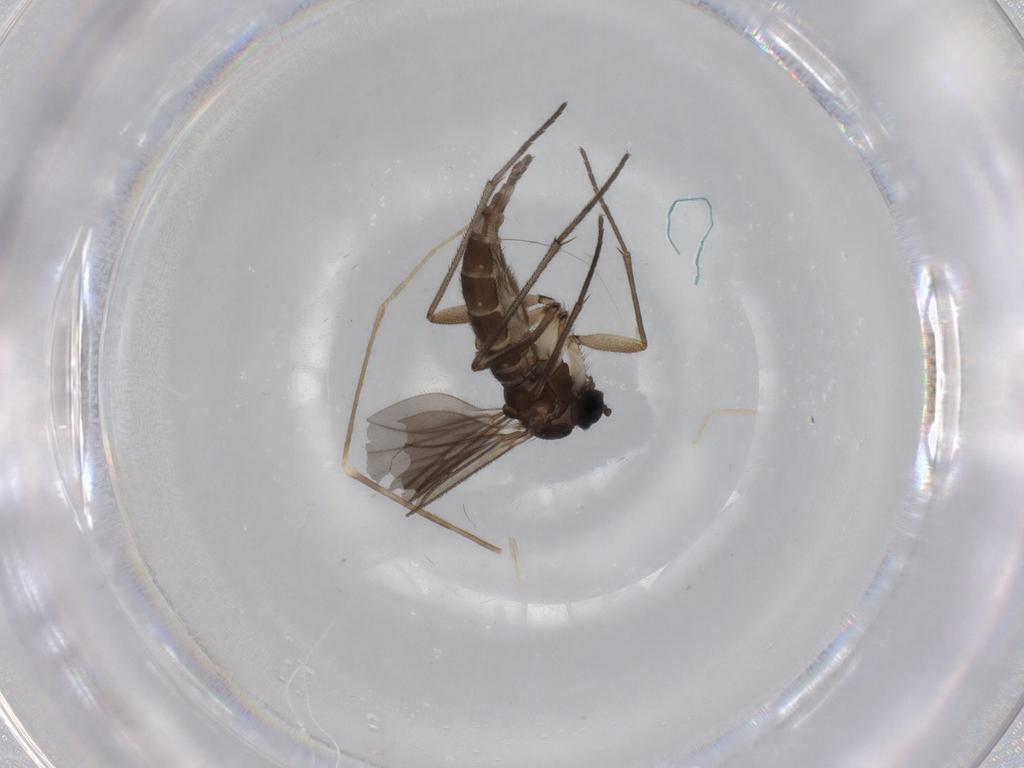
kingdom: Animalia
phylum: Arthropoda
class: Insecta
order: Diptera
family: Sciaridae
